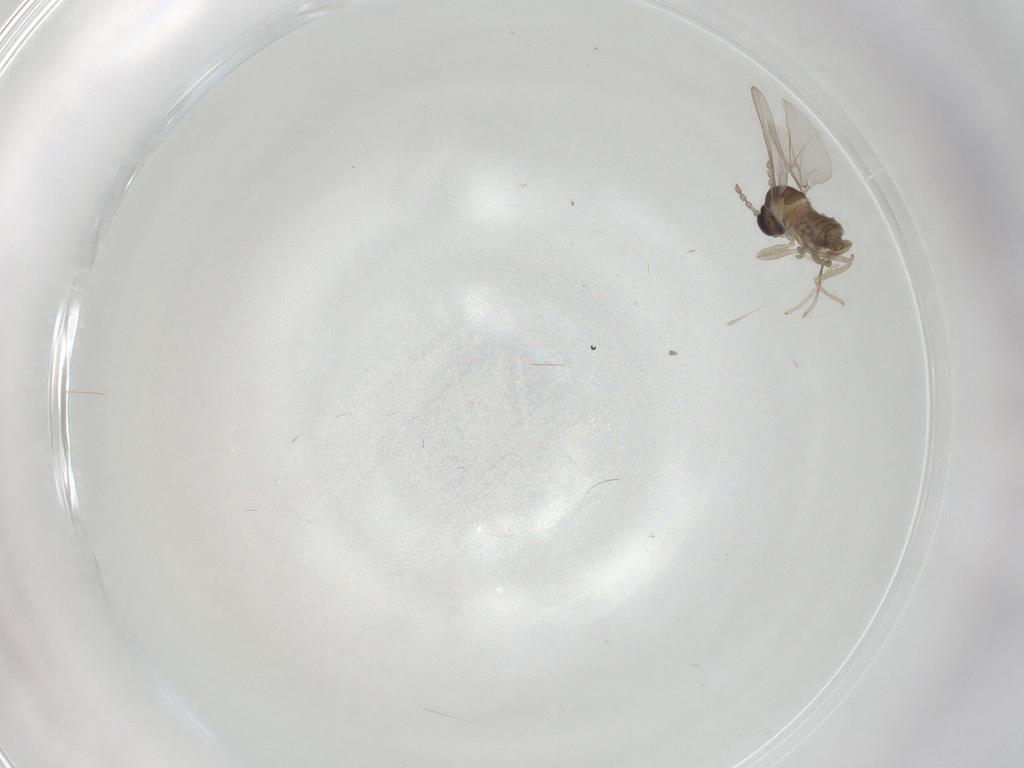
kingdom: Animalia
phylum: Arthropoda
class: Insecta
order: Diptera
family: Cecidomyiidae
